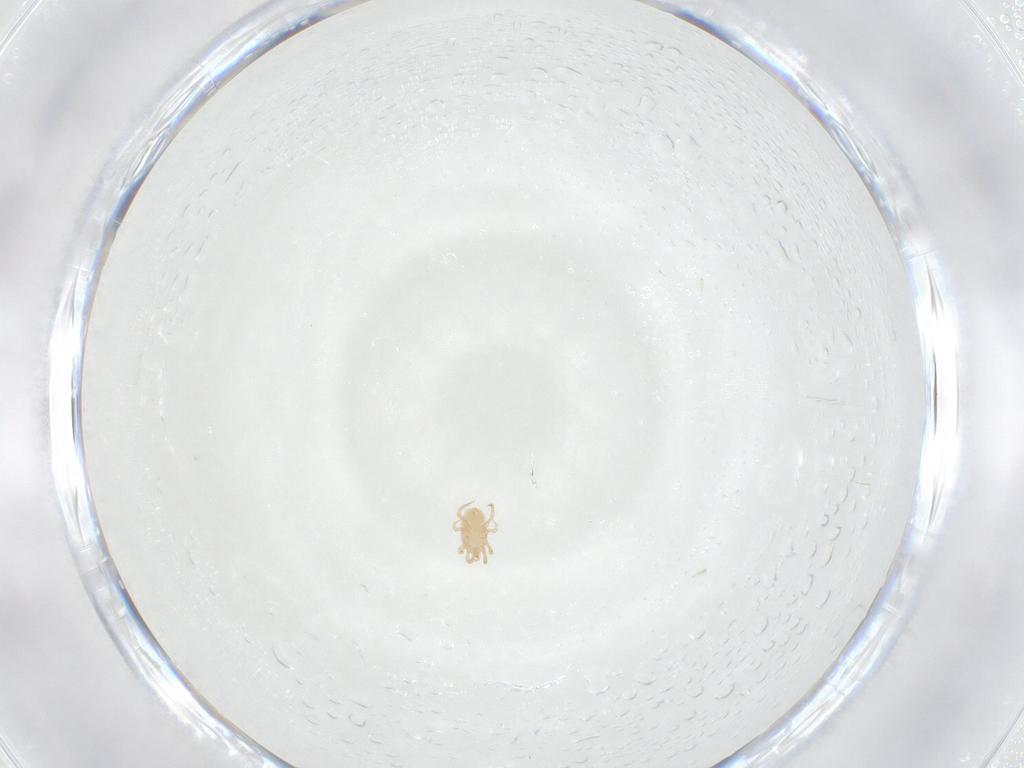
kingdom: Animalia
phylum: Arthropoda
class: Arachnida
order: Mesostigmata
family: Blattisociidae
